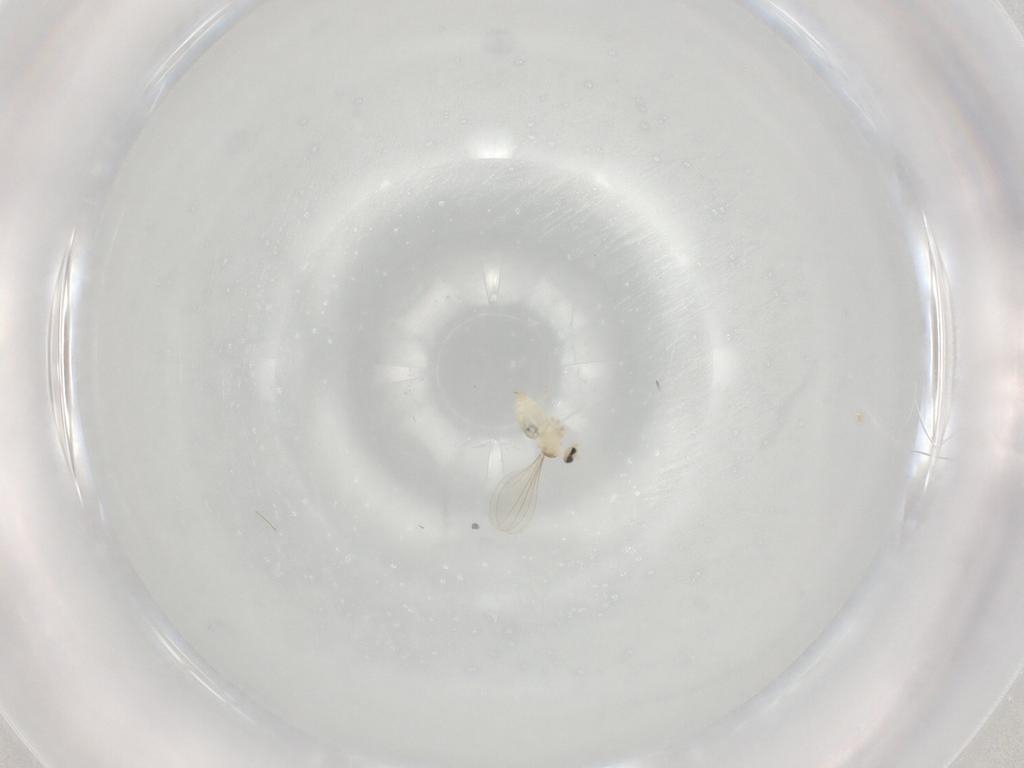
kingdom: Animalia
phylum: Arthropoda
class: Insecta
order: Diptera
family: Cecidomyiidae
